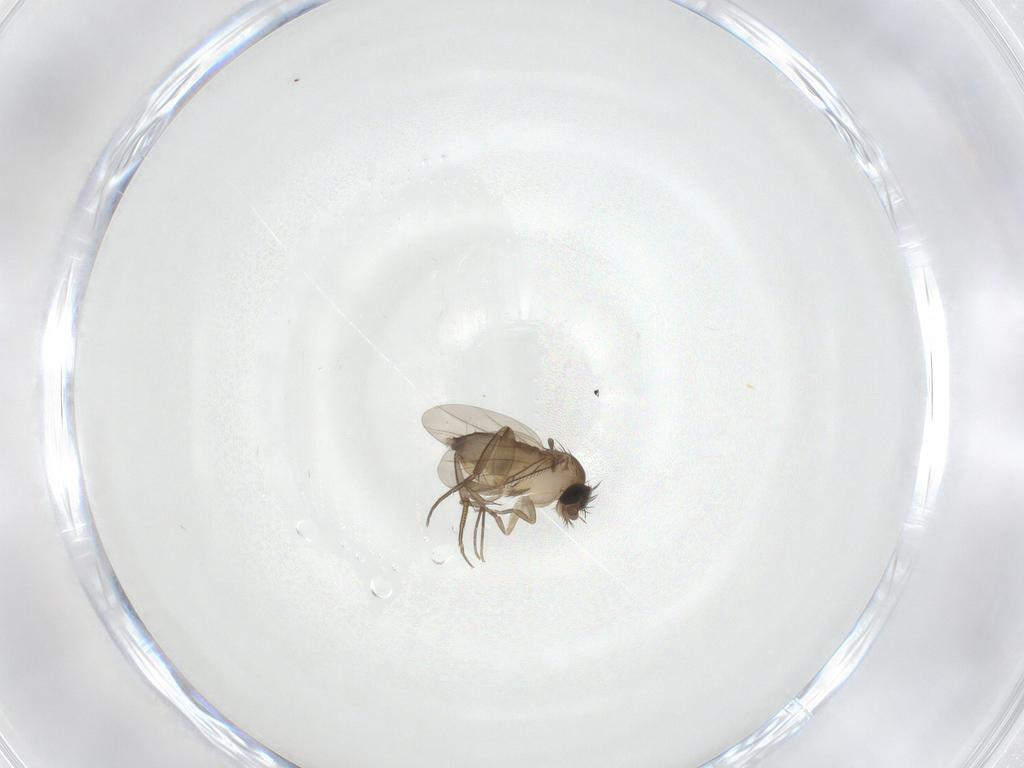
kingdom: Animalia
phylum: Arthropoda
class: Insecta
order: Diptera
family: Phoridae
